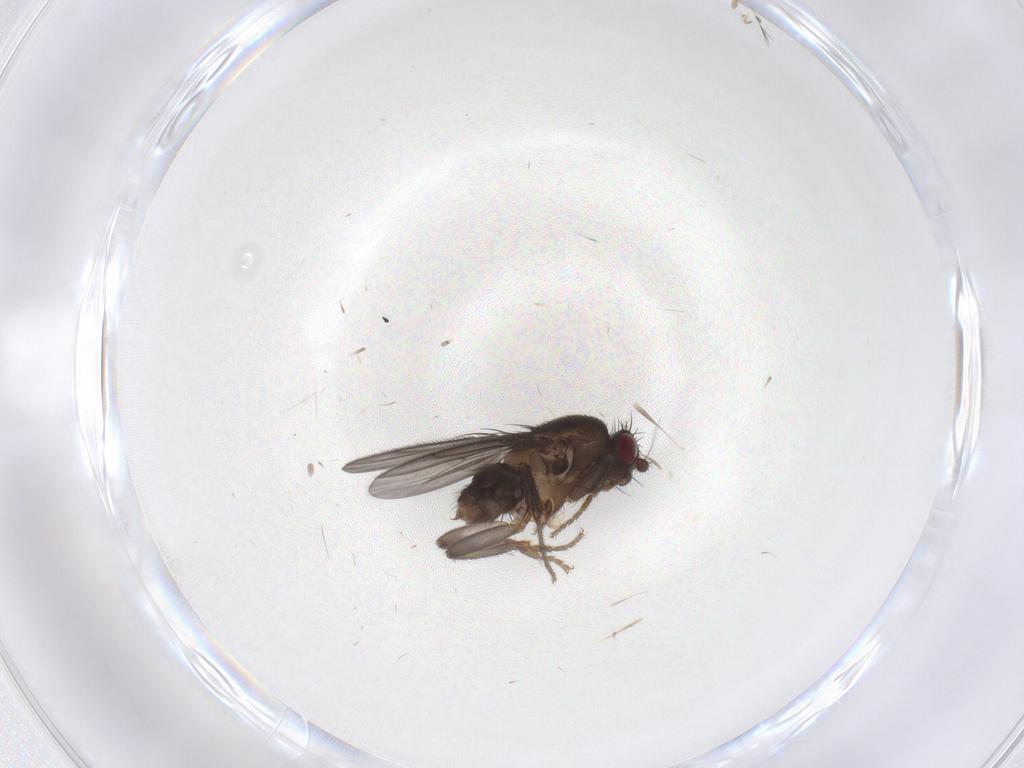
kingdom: Animalia
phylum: Arthropoda
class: Insecta
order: Diptera
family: Phoridae
